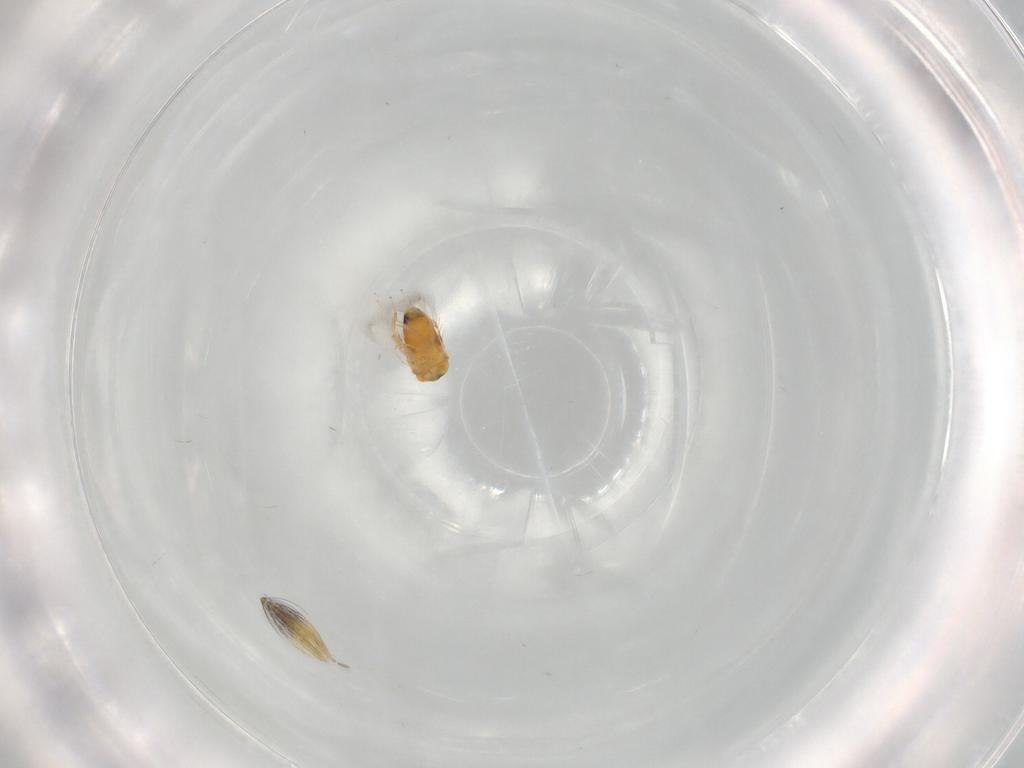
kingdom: Animalia
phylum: Arthropoda
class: Insecta
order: Hymenoptera
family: Signiphoridae
